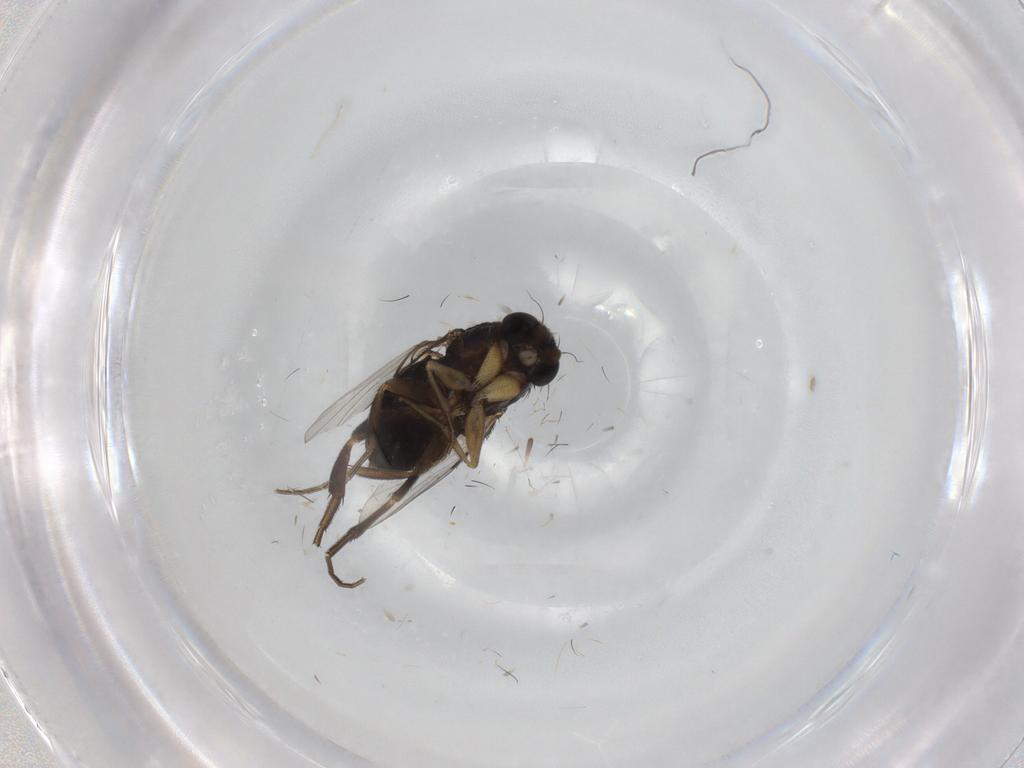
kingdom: Animalia
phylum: Arthropoda
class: Insecta
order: Diptera
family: Phoridae
